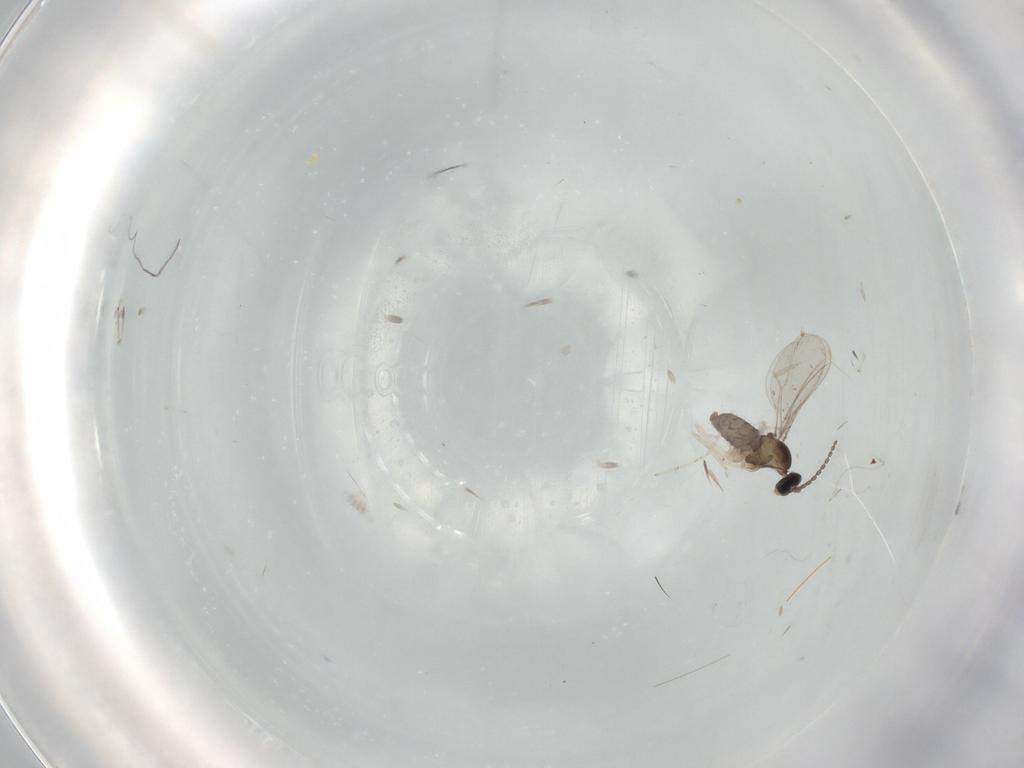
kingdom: Animalia
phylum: Arthropoda
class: Insecta
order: Diptera
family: Cecidomyiidae
